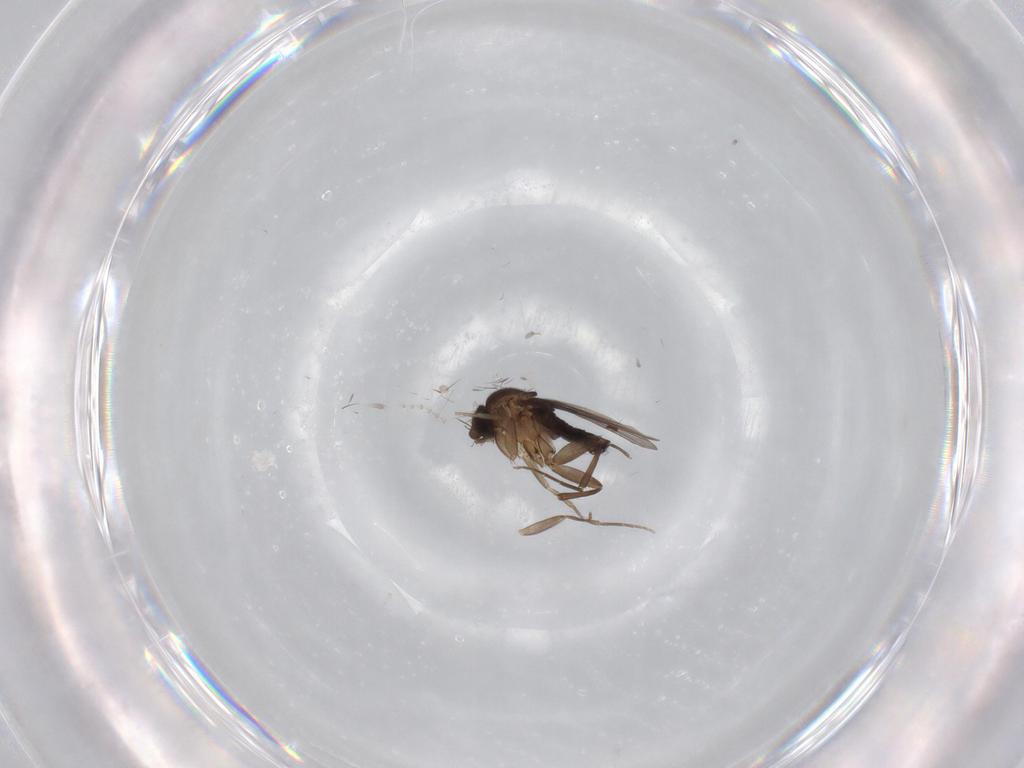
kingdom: Animalia
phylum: Arthropoda
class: Insecta
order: Diptera
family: Phoridae
